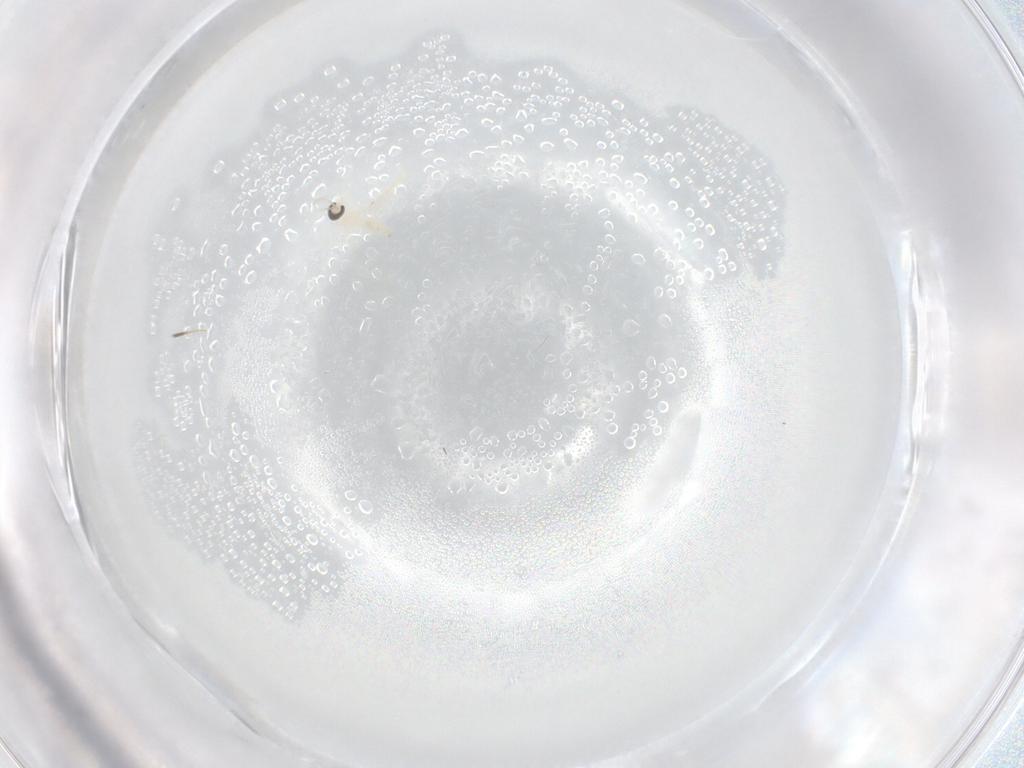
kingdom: Animalia
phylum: Arthropoda
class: Insecta
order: Diptera
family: Cecidomyiidae
